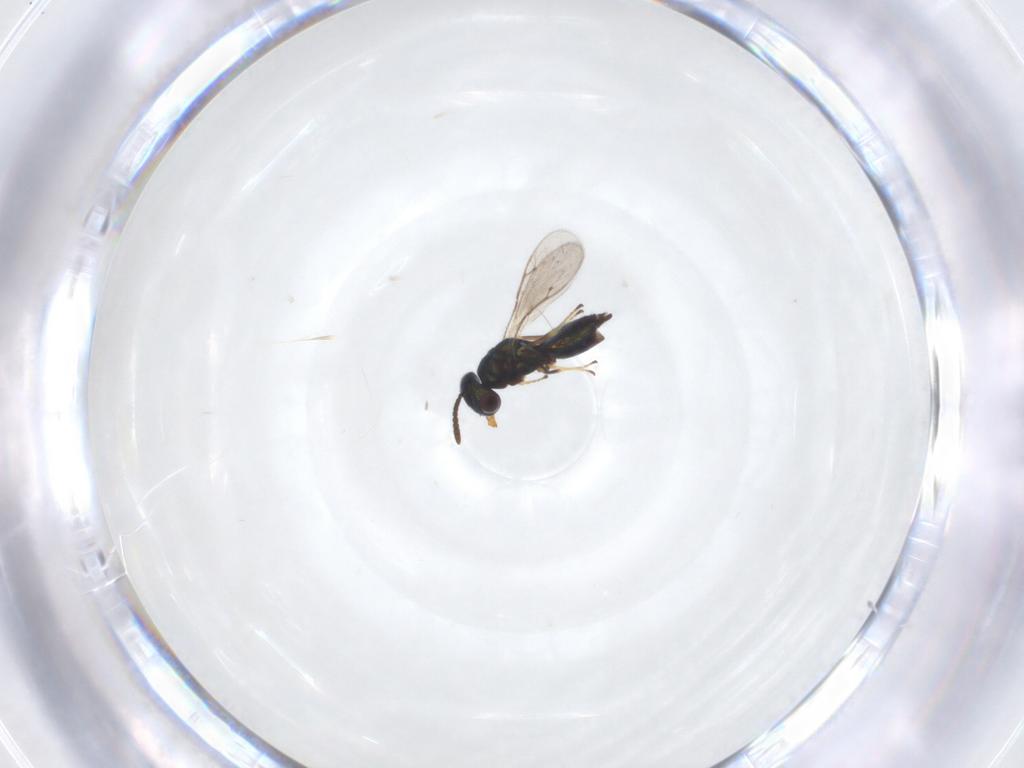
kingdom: Animalia
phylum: Arthropoda
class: Insecta
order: Hymenoptera
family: Pteromalidae
